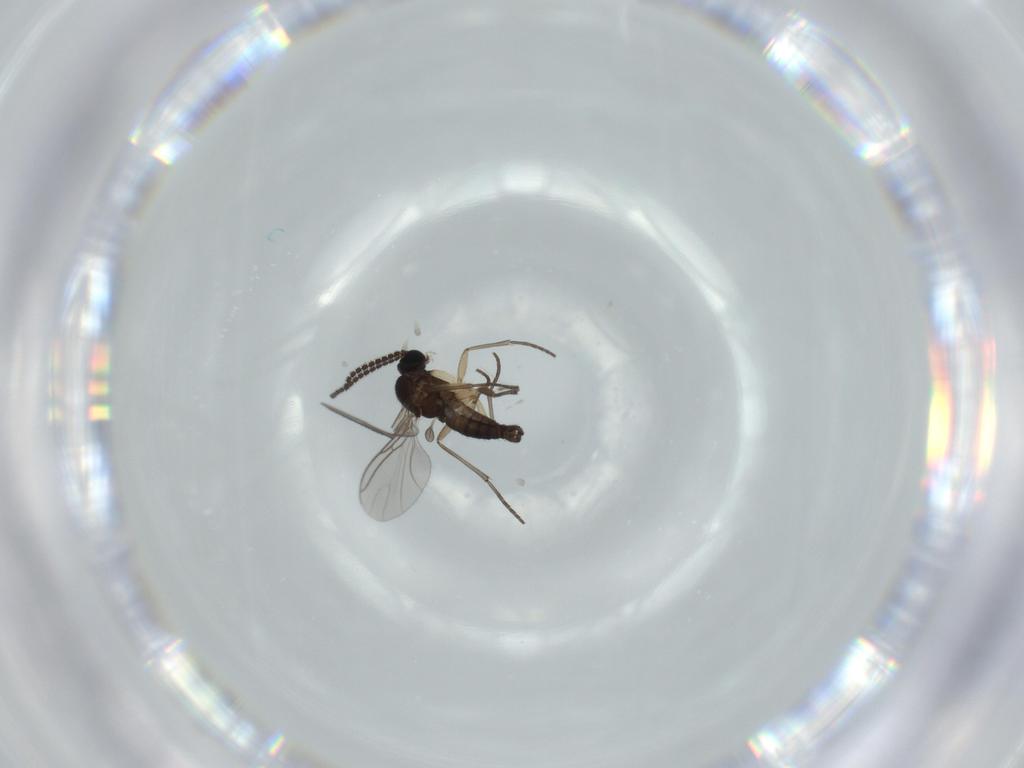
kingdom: Animalia
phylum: Arthropoda
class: Insecta
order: Diptera
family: Sciaridae
